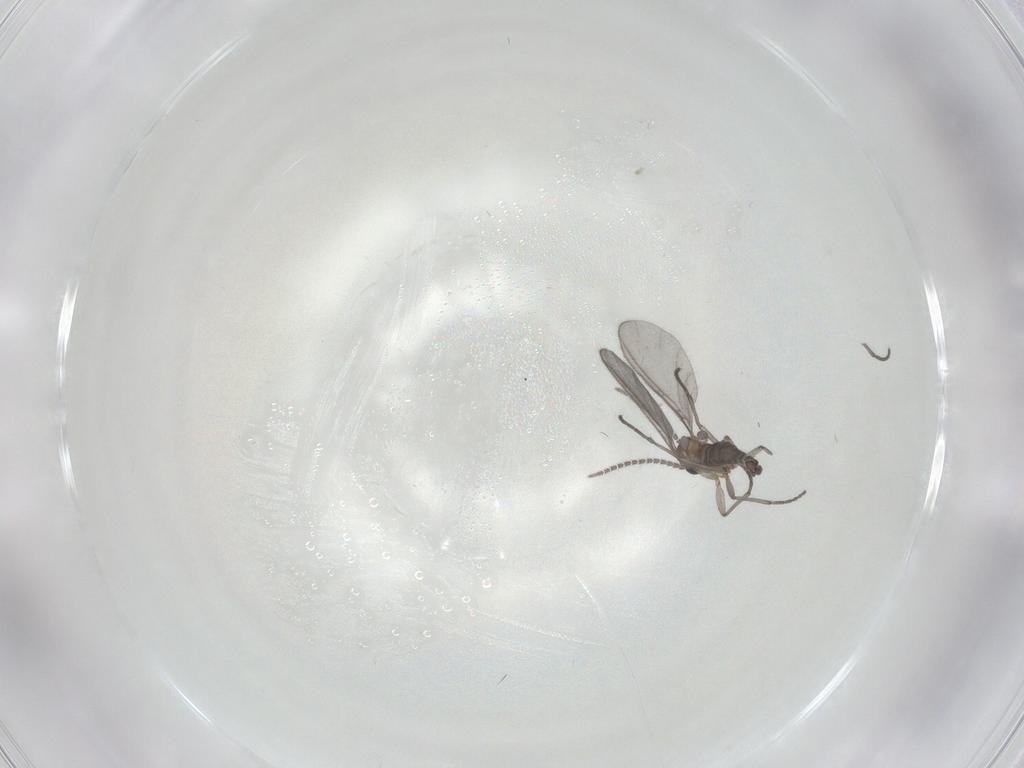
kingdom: Animalia
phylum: Arthropoda
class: Insecta
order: Diptera
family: Sciaridae
